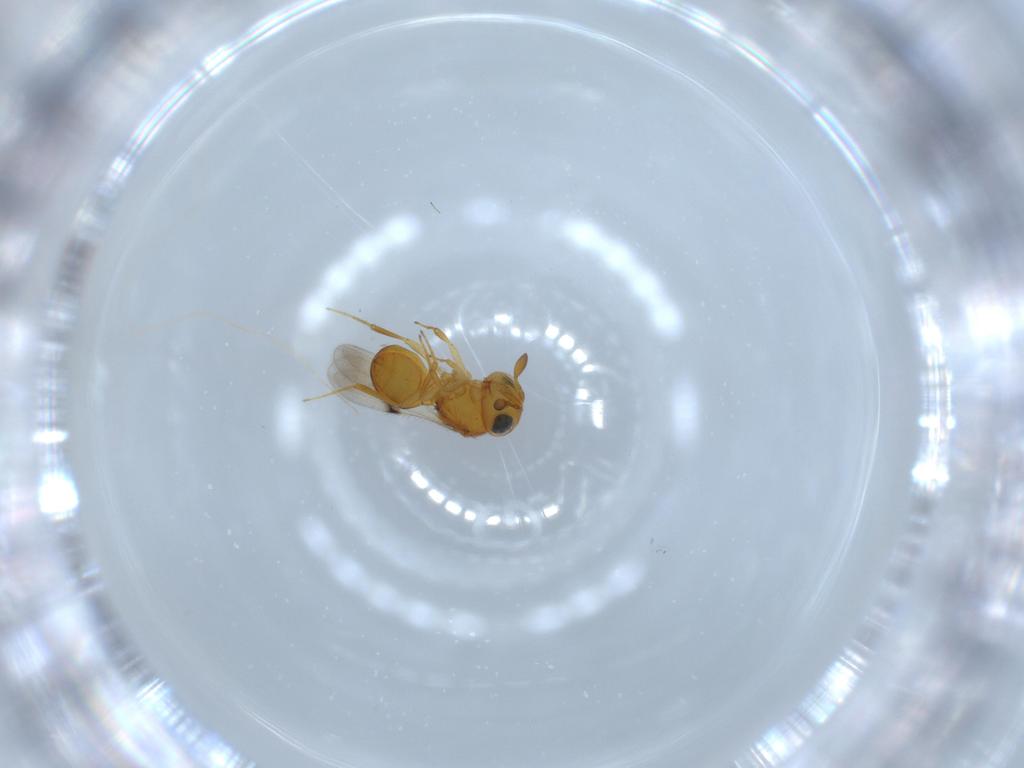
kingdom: Animalia
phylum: Arthropoda
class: Insecta
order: Hymenoptera
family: Scelionidae
